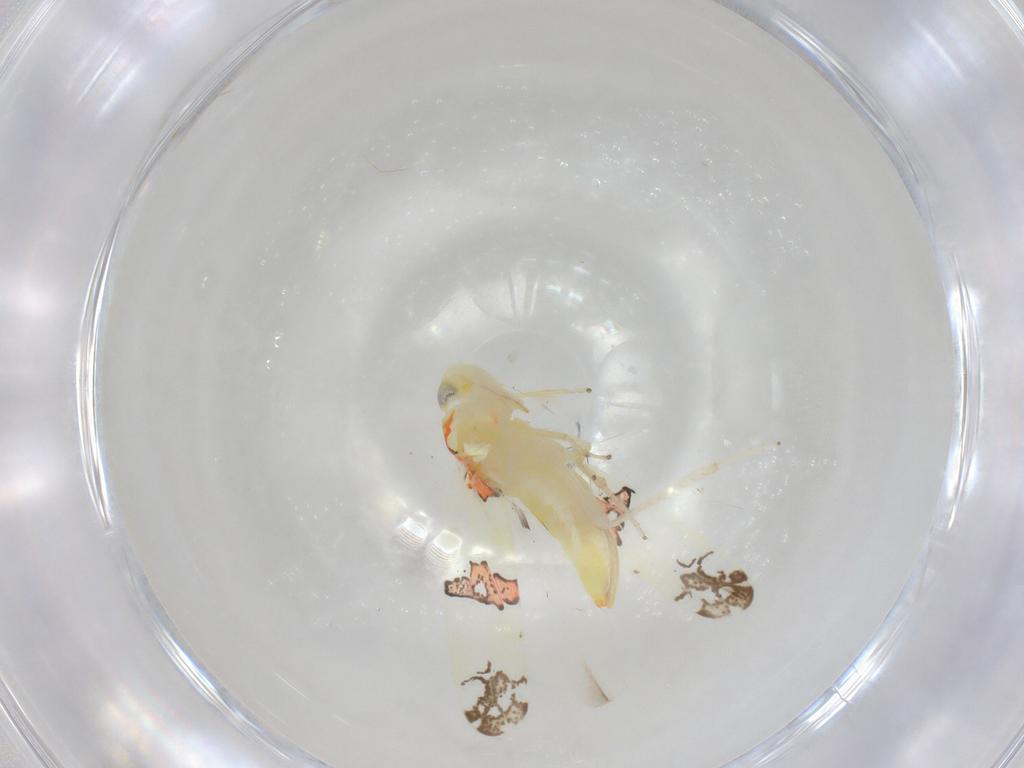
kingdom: Animalia
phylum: Arthropoda
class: Insecta
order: Hemiptera
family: Cicadellidae
